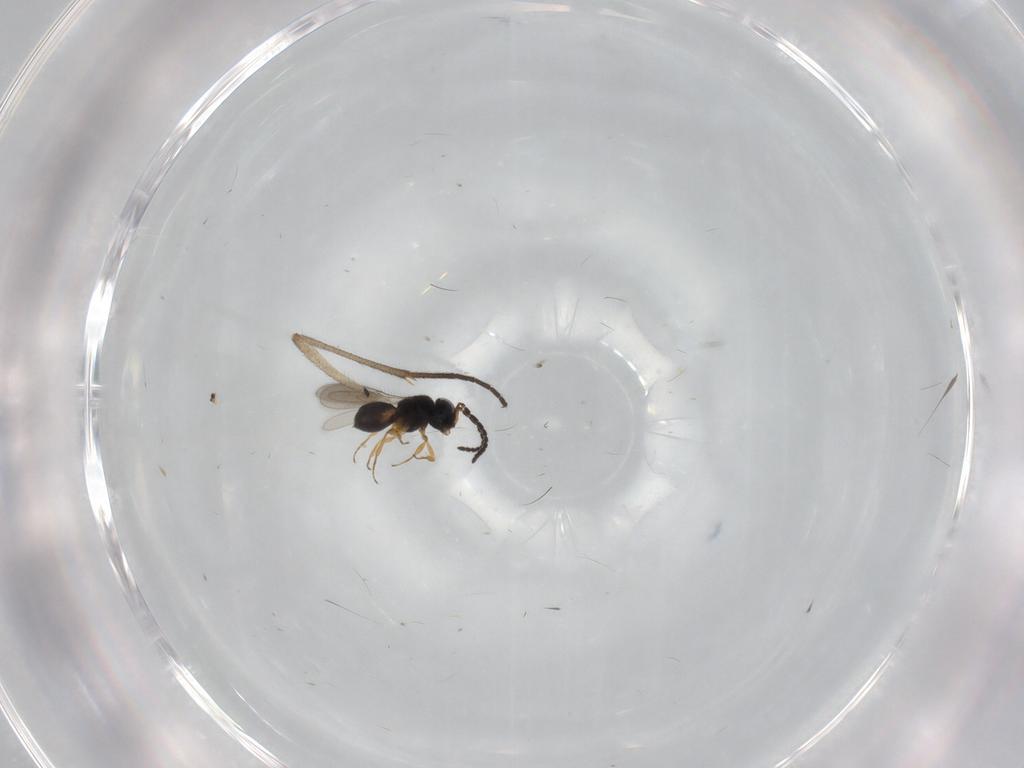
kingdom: Animalia
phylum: Arthropoda
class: Insecta
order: Hymenoptera
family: Scelionidae
